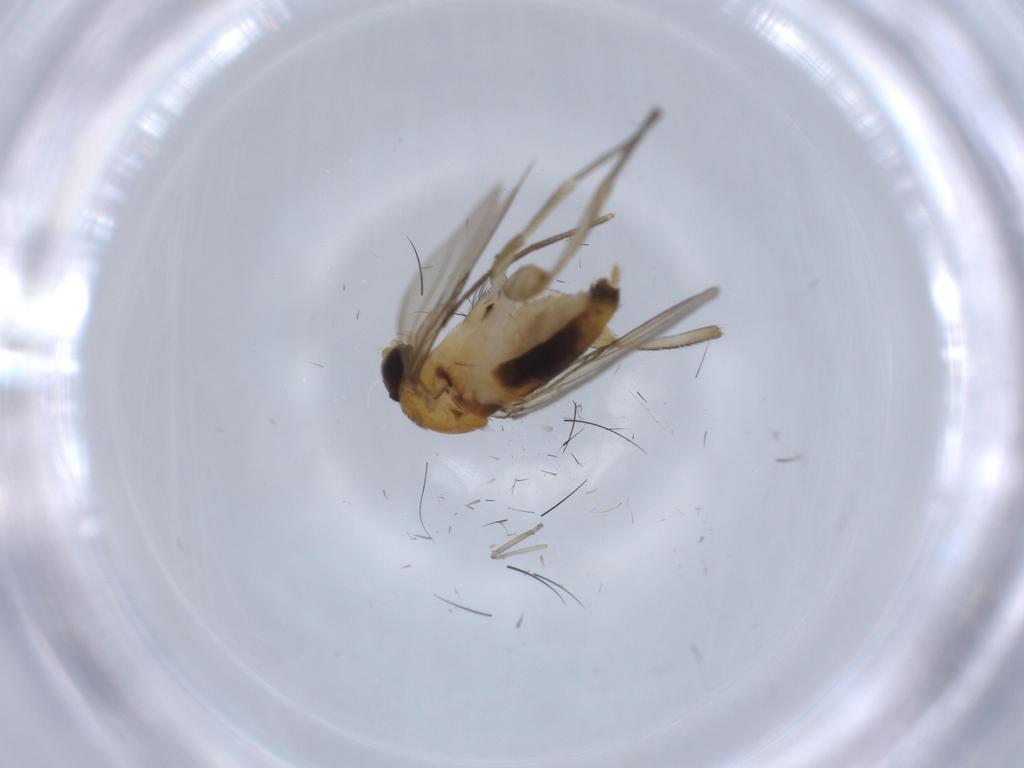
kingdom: Animalia
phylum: Arthropoda
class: Insecta
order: Diptera
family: Phoridae
